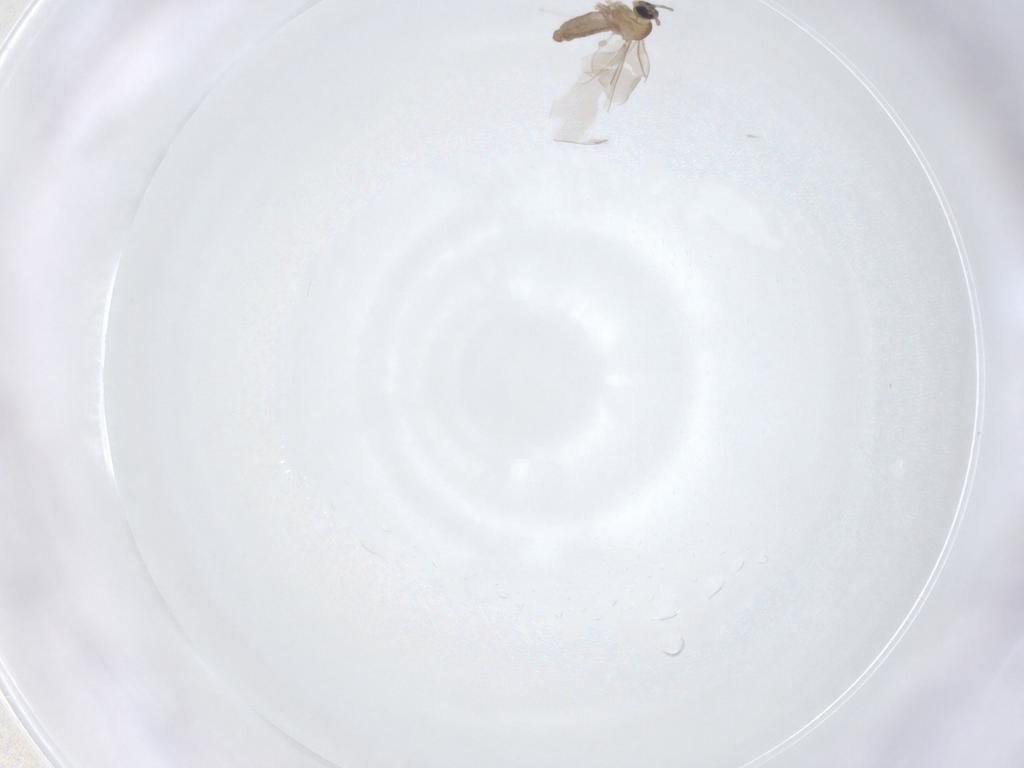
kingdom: Animalia
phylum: Arthropoda
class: Insecta
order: Diptera
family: Cecidomyiidae
